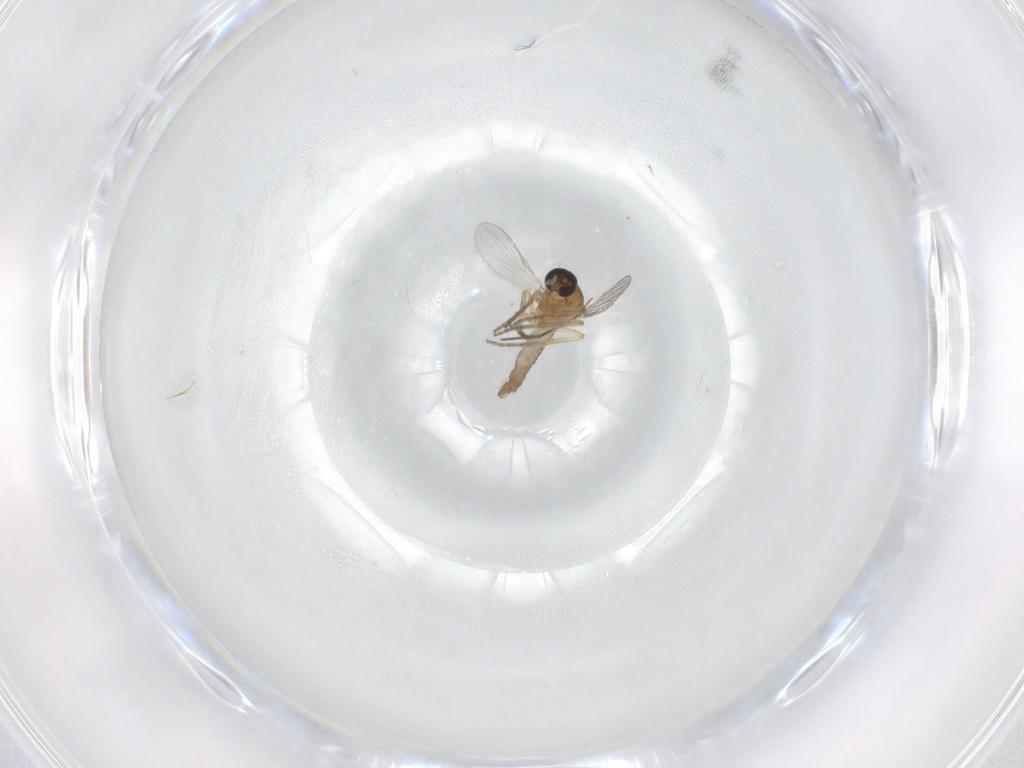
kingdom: Animalia
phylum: Arthropoda
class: Insecta
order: Diptera
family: Ceratopogonidae
